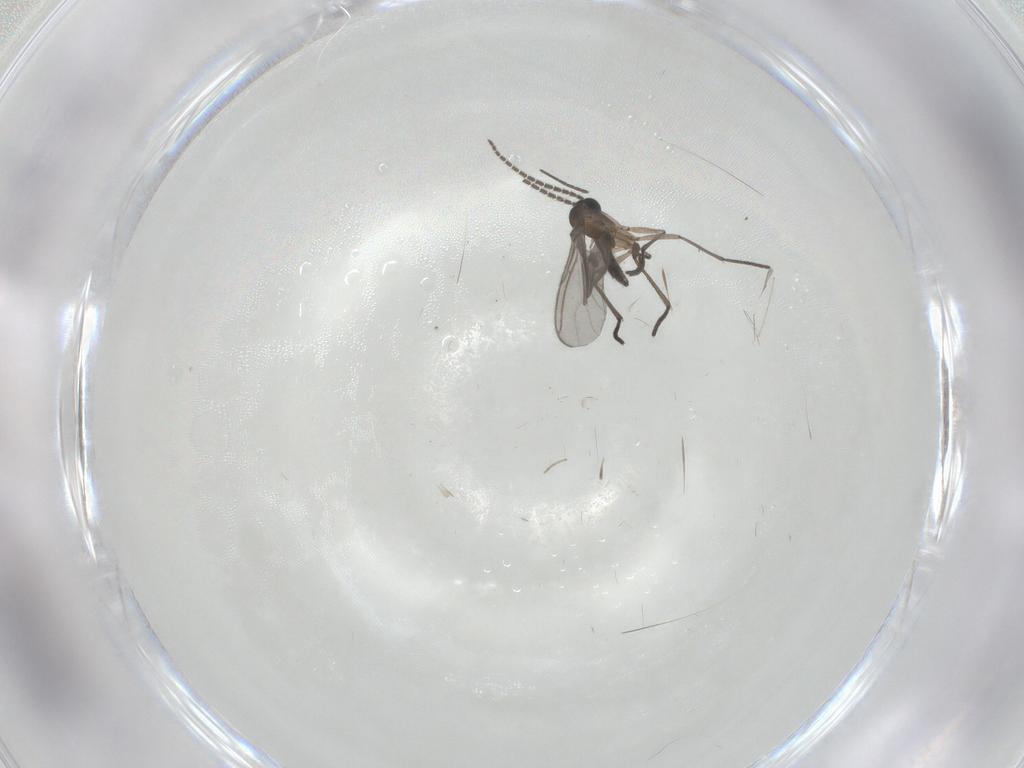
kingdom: Animalia
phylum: Arthropoda
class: Insecta
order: Diptera
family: Sciaridae
